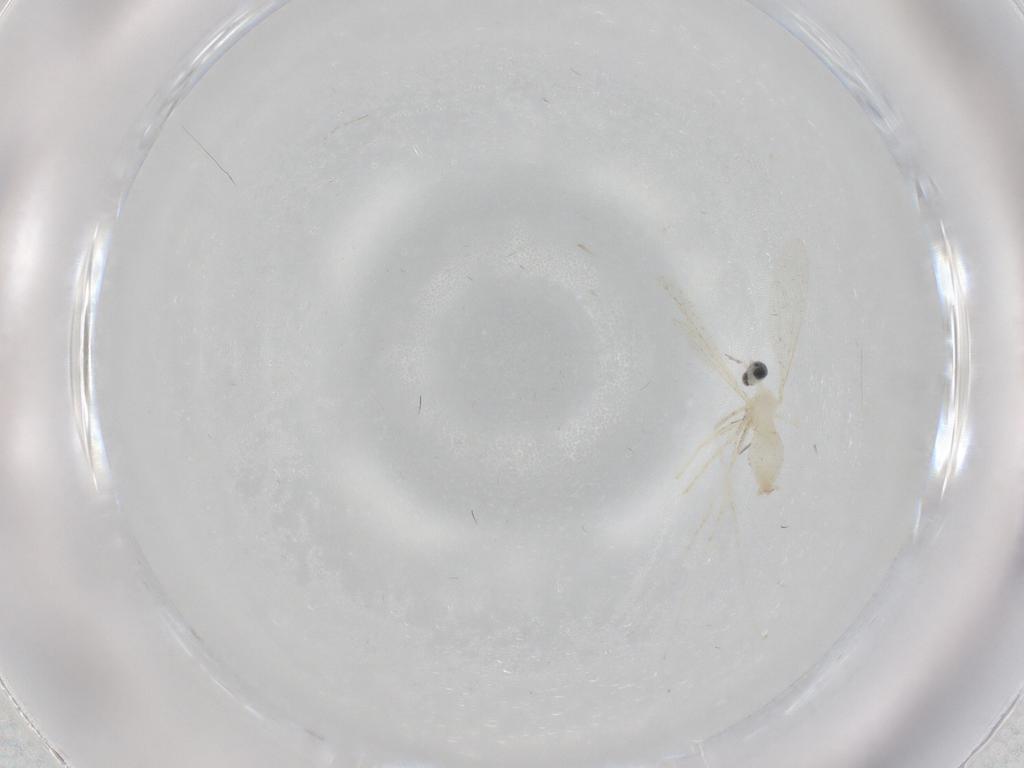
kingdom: Animalia
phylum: Arthropoda
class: Insecta
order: Diptera
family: Chironomidae
